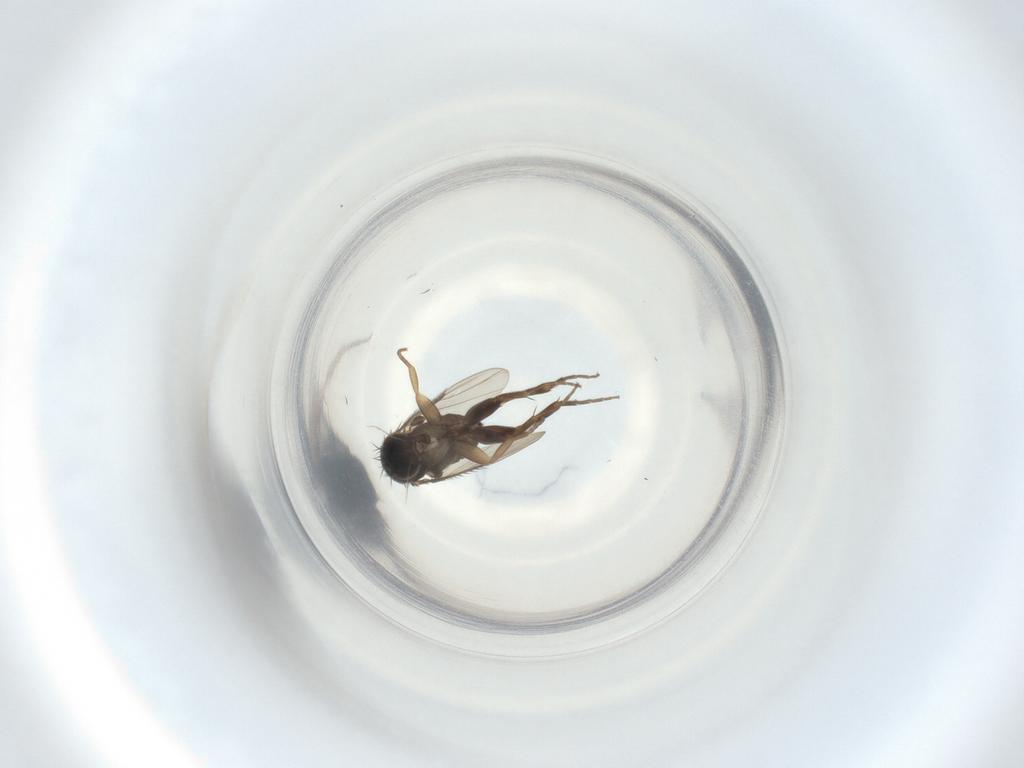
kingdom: Animalia
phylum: Arthropoda
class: Insecta
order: Diptera
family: Phoridae
